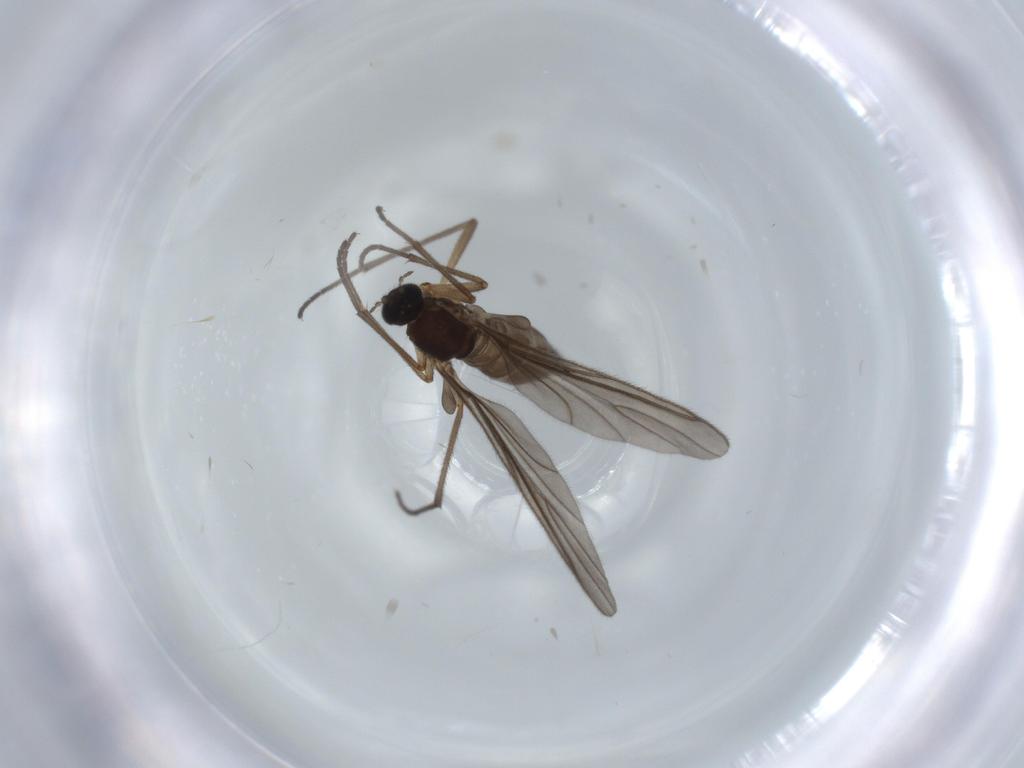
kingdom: Animalia
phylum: Arthropoda
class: Insecta
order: Diptera
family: Sciaridae
